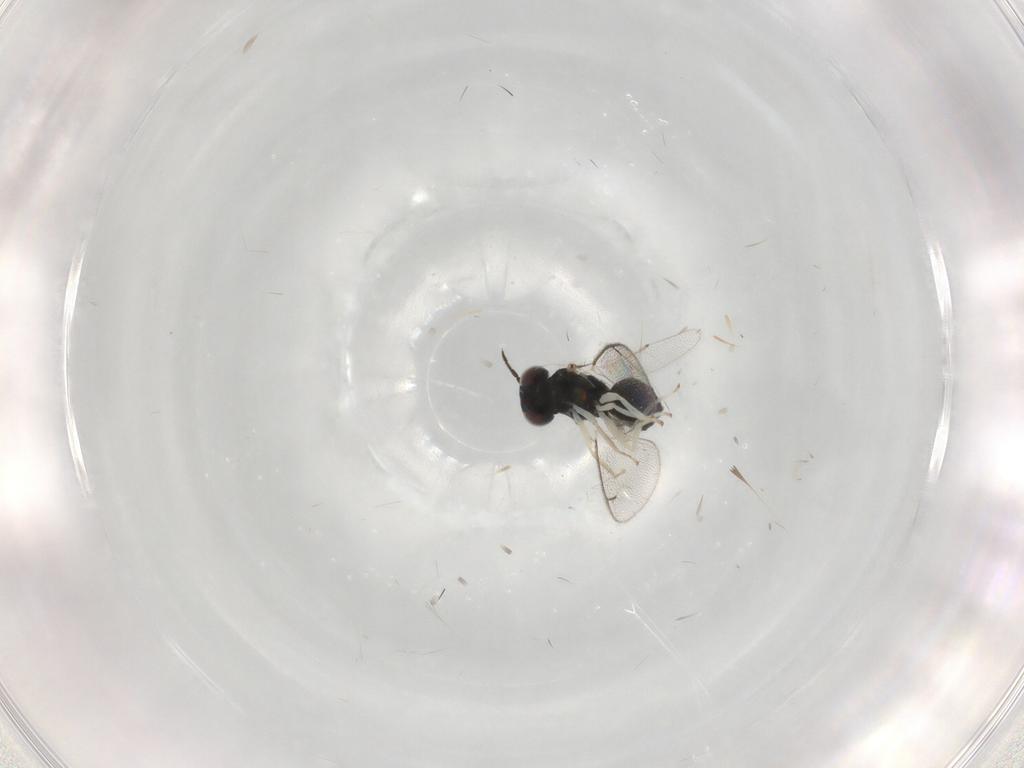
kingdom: Animalia
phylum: Arthropoda
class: Insecta
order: Hymenoptera
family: Eulophidae
